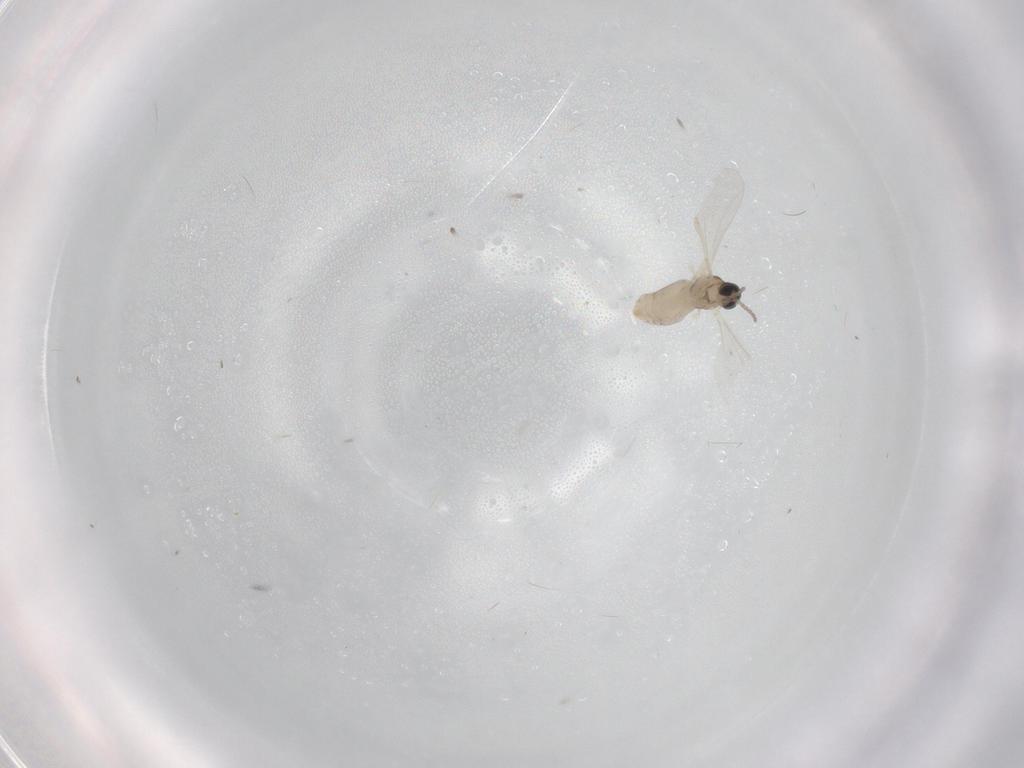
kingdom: Animalia
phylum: Arthropoda
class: Insecta
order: Diptera
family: Cecidomyiidae
